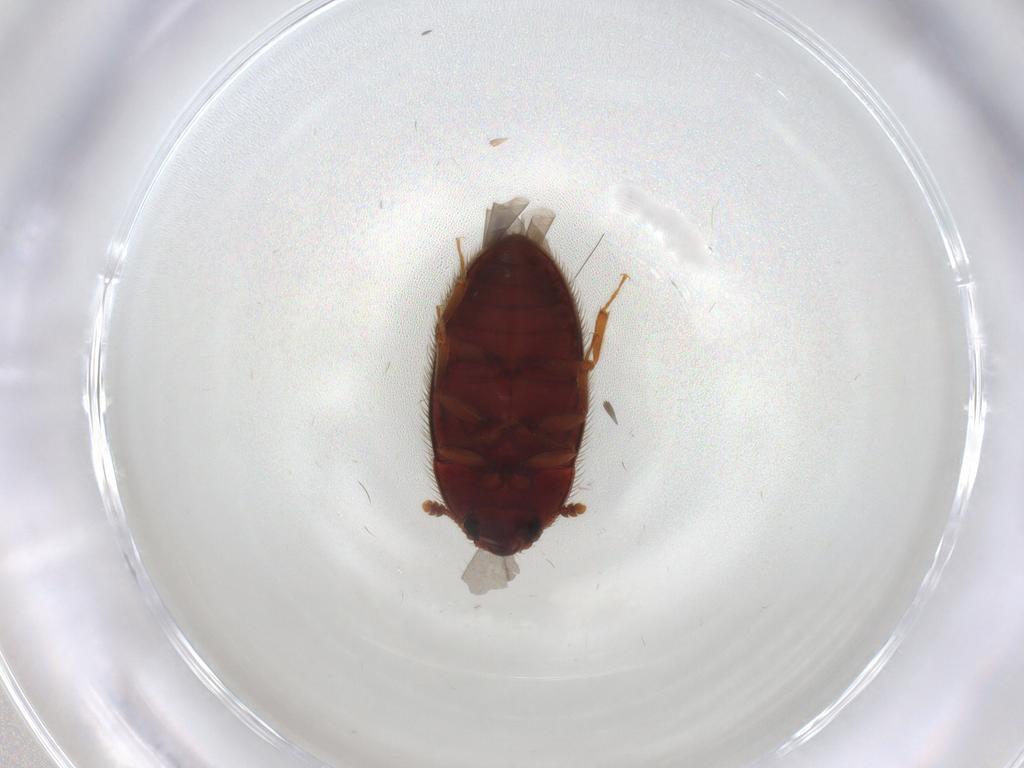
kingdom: Animalia
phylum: Arthropoda
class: Insecta
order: Coleoptera
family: Biphyllidae
